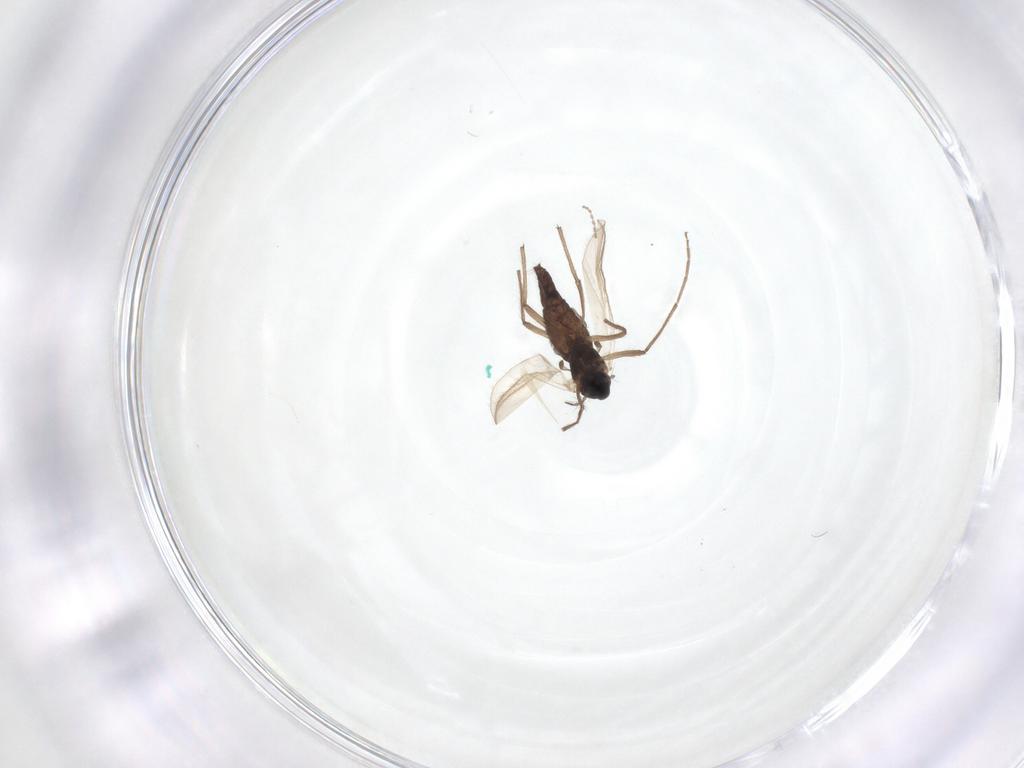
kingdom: Animalia
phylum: Arthropoda
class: Insecta
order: Diptera
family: Chironomidae
